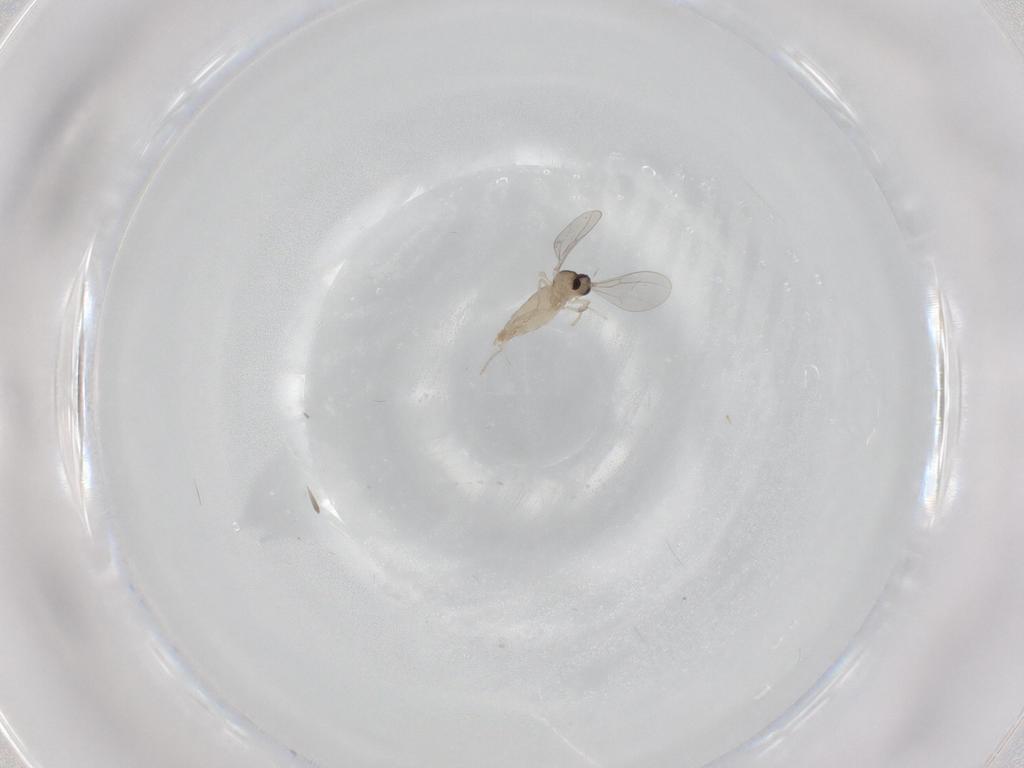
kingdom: Animalia
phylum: Arthropoda
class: Insecta
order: Diptera
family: Cecidomyiidae
